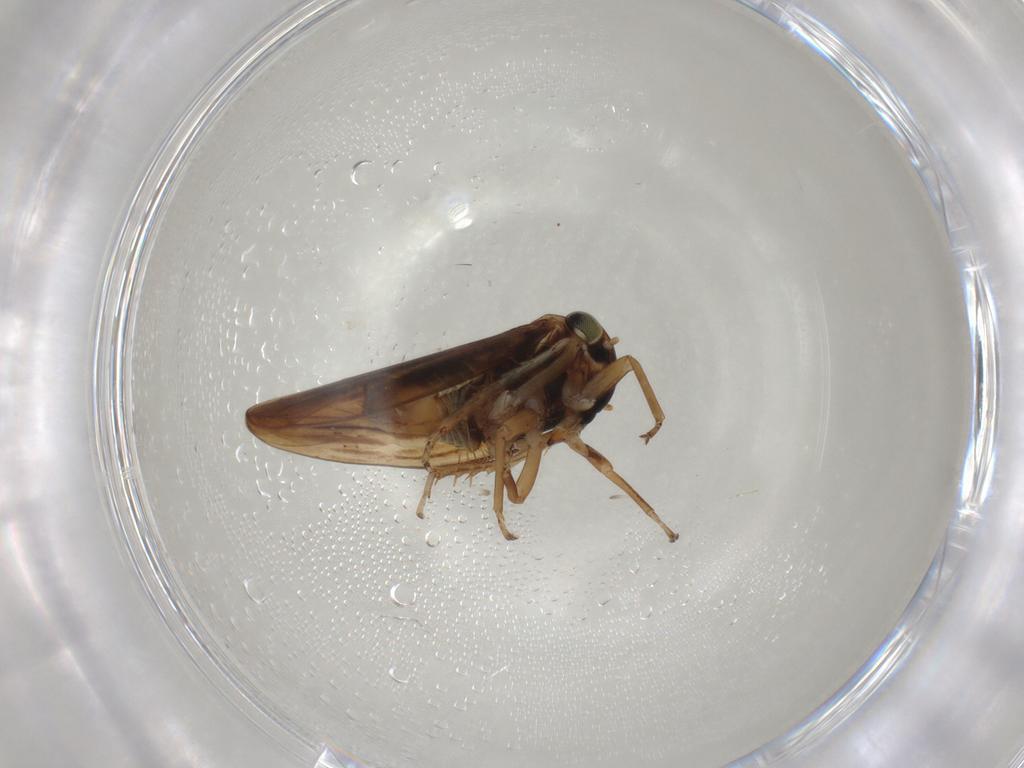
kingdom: Animalia
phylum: Arthropoda
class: Insecta
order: Hemiptera
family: Cicadellidae
